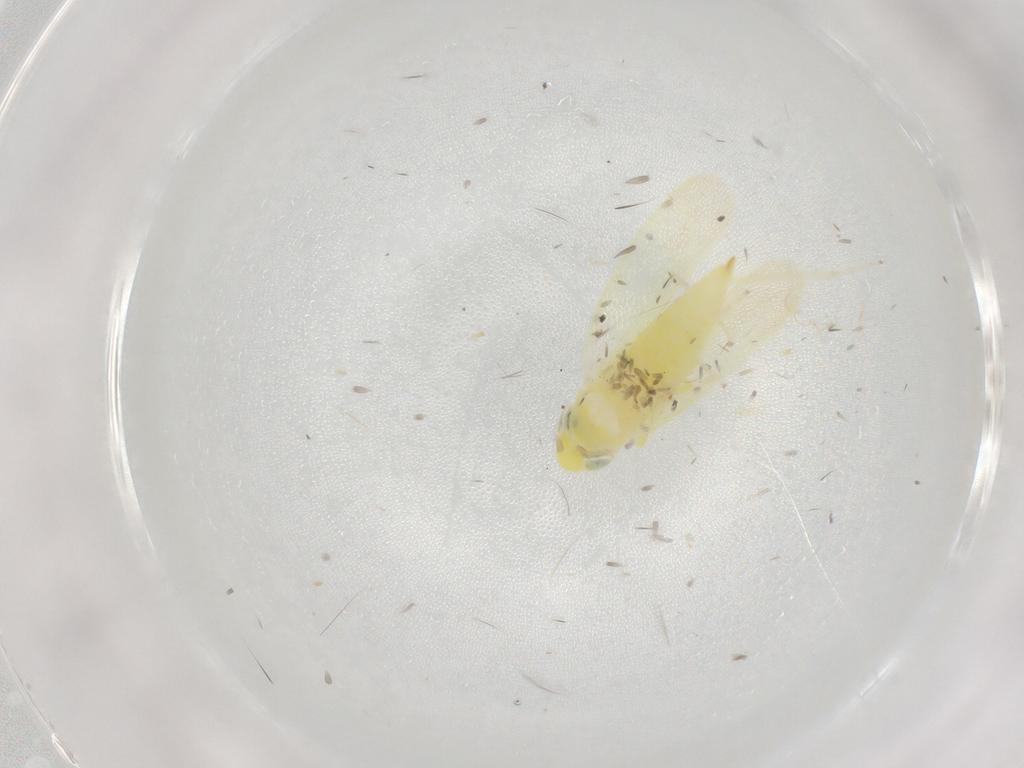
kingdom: Animalia
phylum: Arthropoda
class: Insecta
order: Hemiptera
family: Cicadellidae
